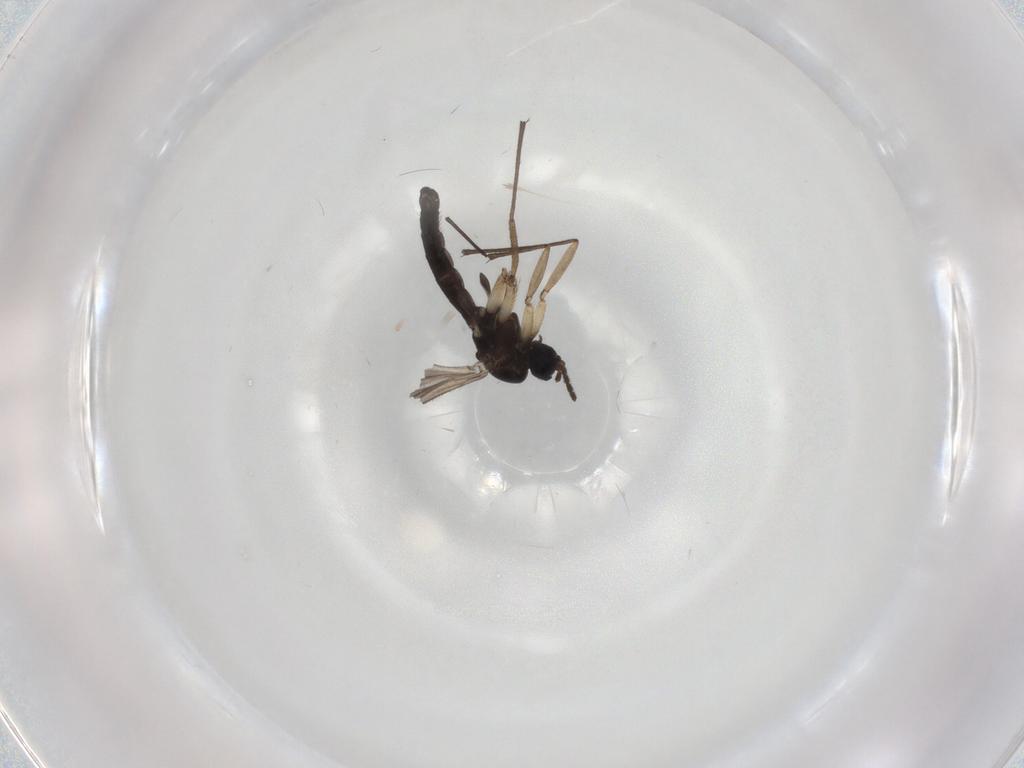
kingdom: Animalia
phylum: Arthropoda
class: Insecta
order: Diptera
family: Sciaridae
